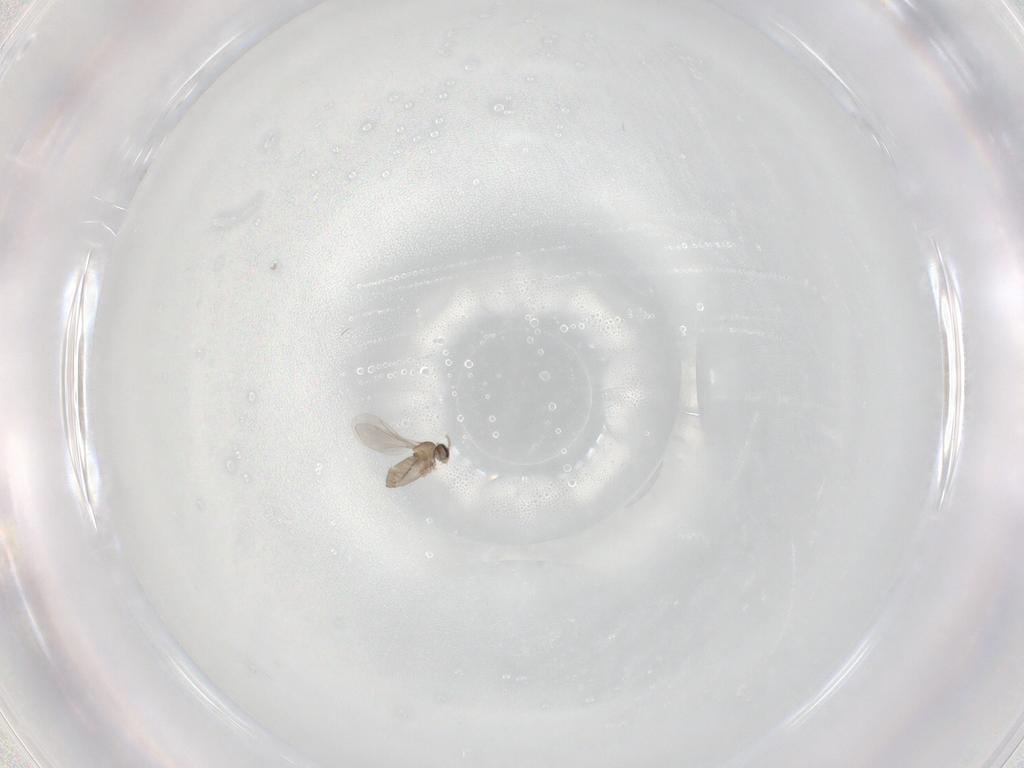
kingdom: Animalia
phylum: Arthropoda
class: Insecta
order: Diptera
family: Cecidomyiidae
